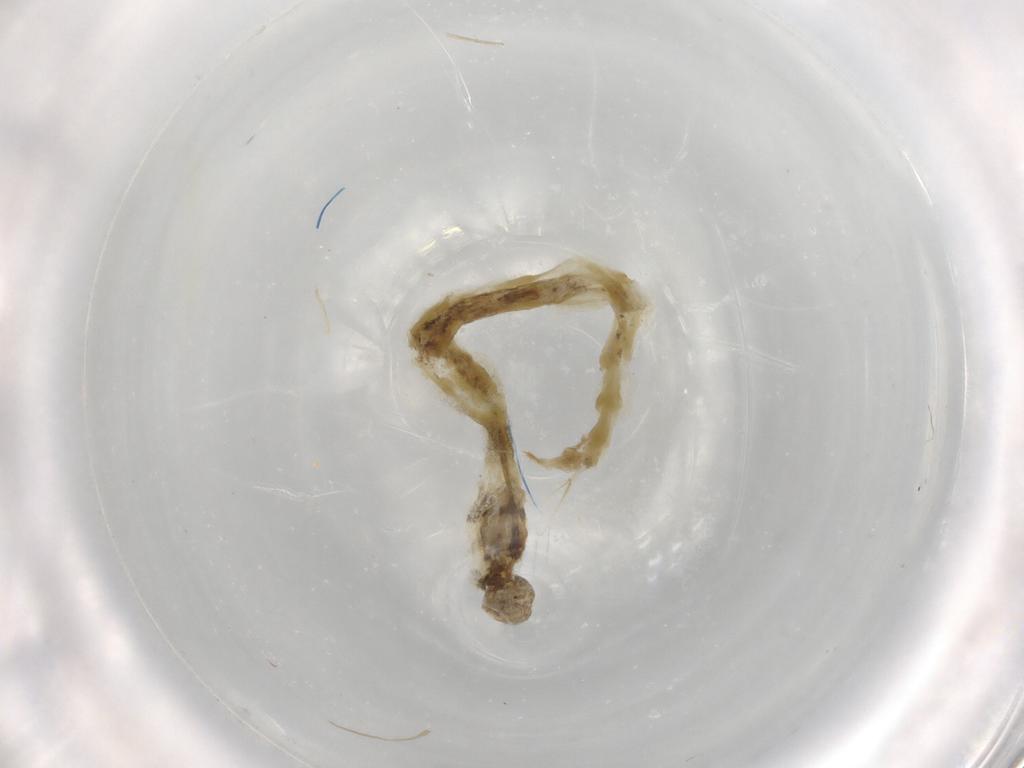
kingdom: Animalia
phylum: Arthropoda
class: Insecta
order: Diptera
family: Chironomidae
